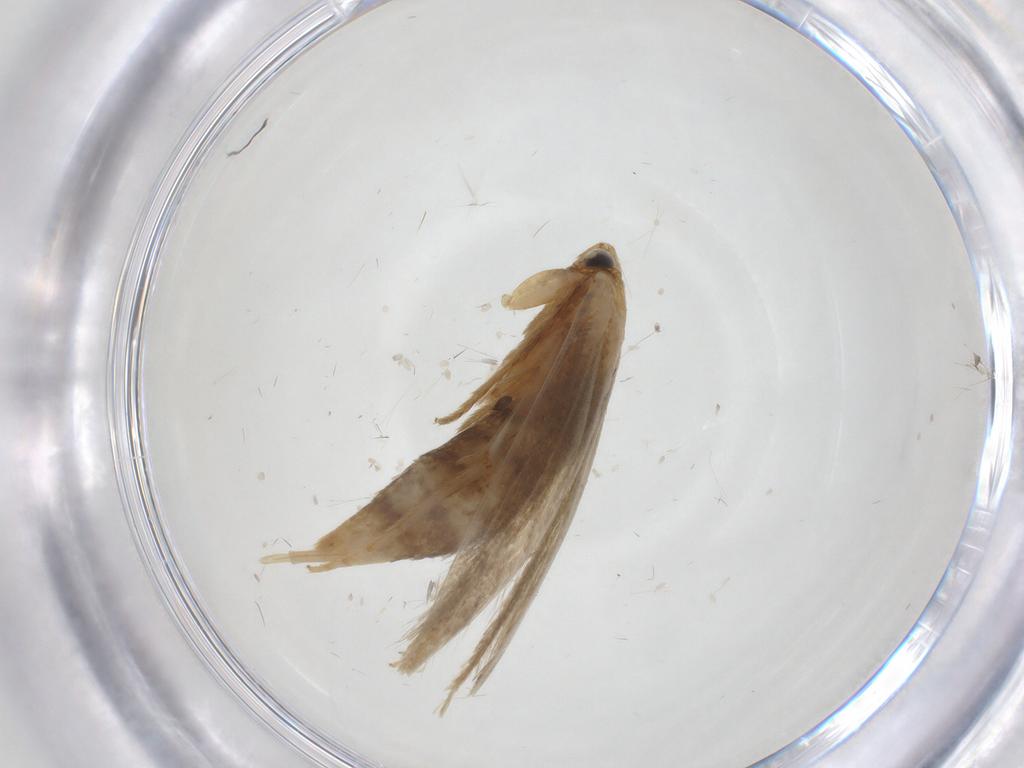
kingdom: Animalia
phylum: Arthropoda
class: Insecta
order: Lepidoptera
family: Tineidae
